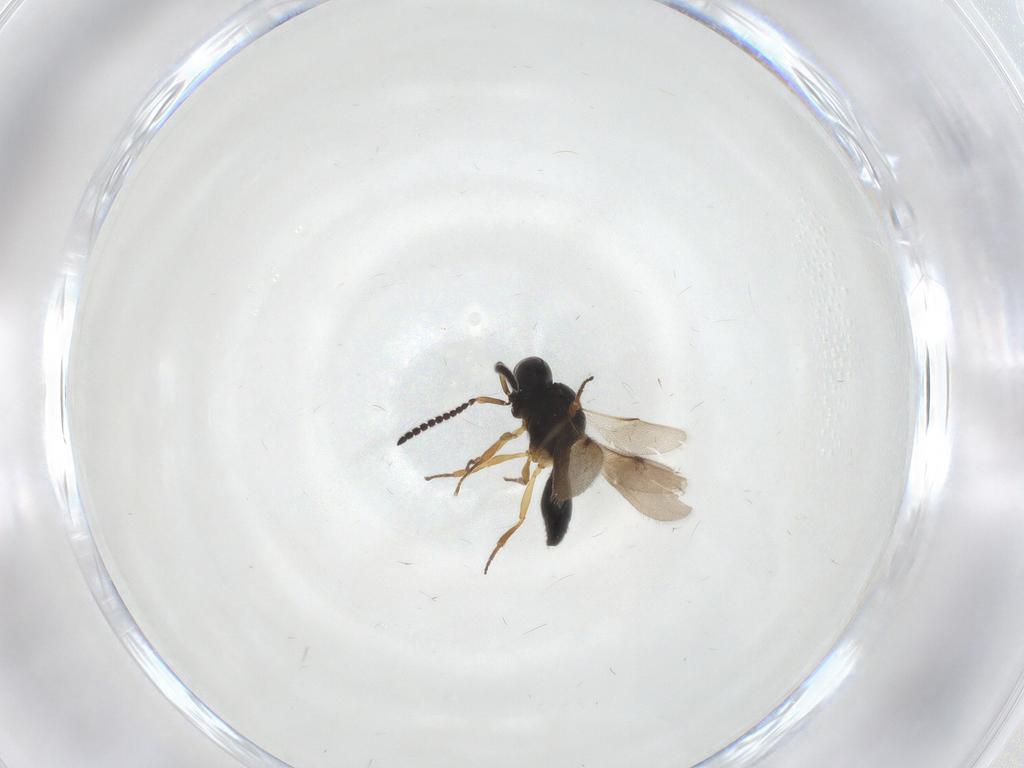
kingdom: Animalia
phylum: Arthropoda
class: Insecta
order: Hymenoptera
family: Scelionidae
